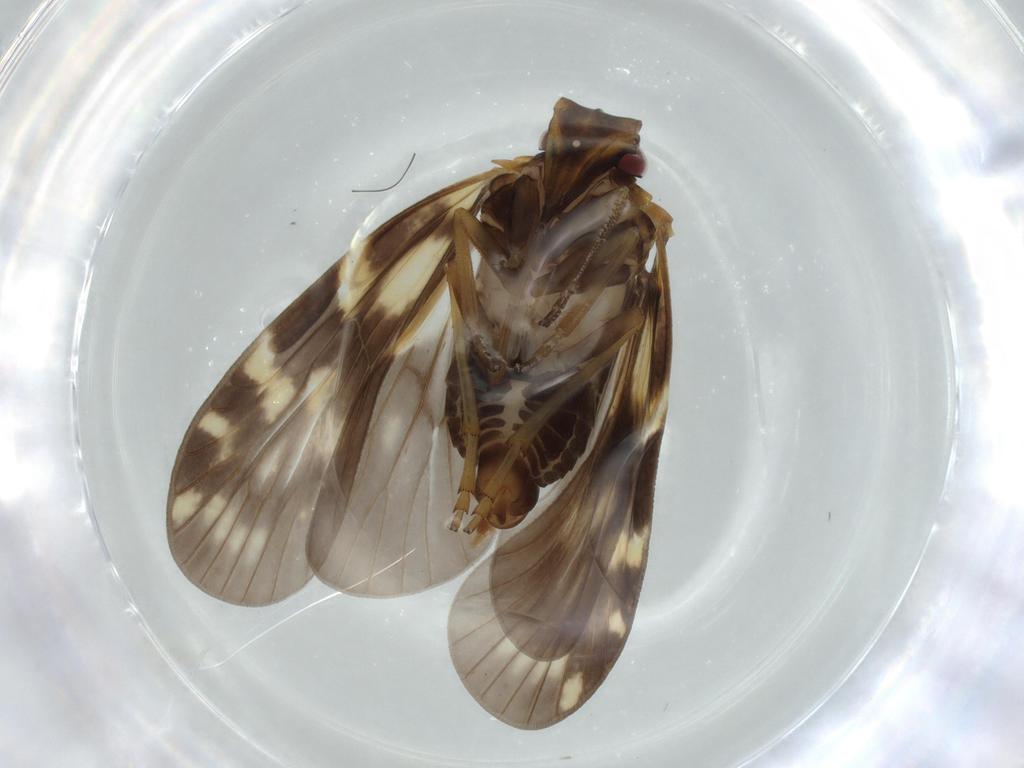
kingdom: Animalia
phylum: Arthropoda
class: Insecta
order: Hemiptera
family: Cixiidae
